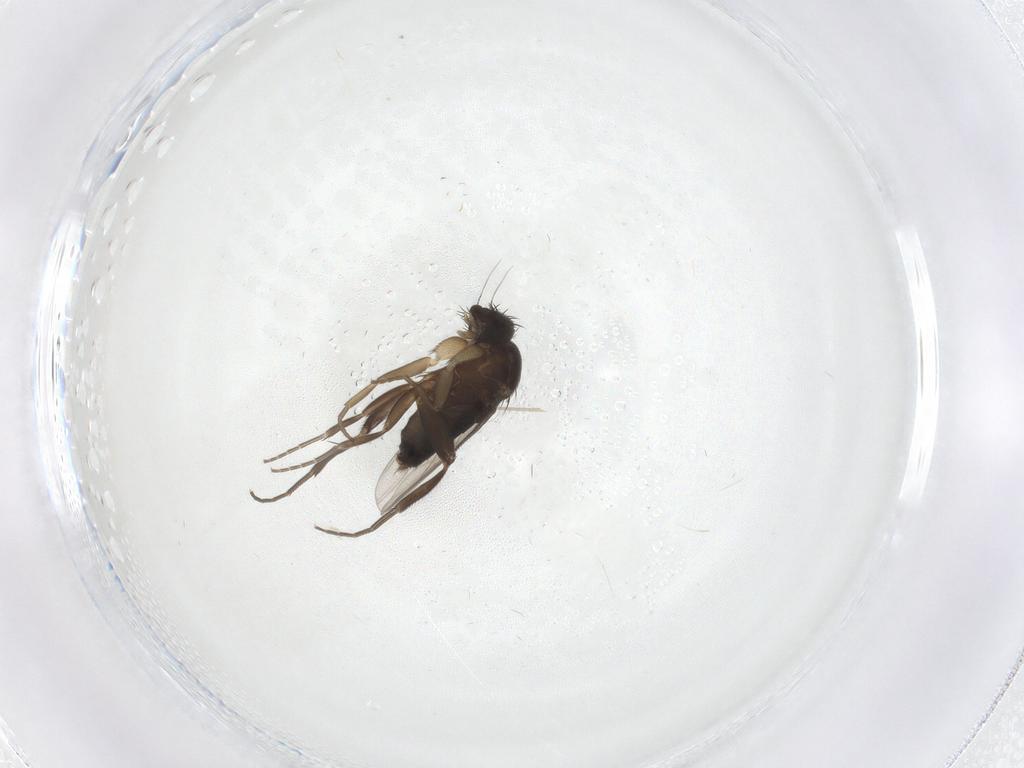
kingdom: Animalia
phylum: Arthropoda
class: Insecta
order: Diptera
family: Phoridae
